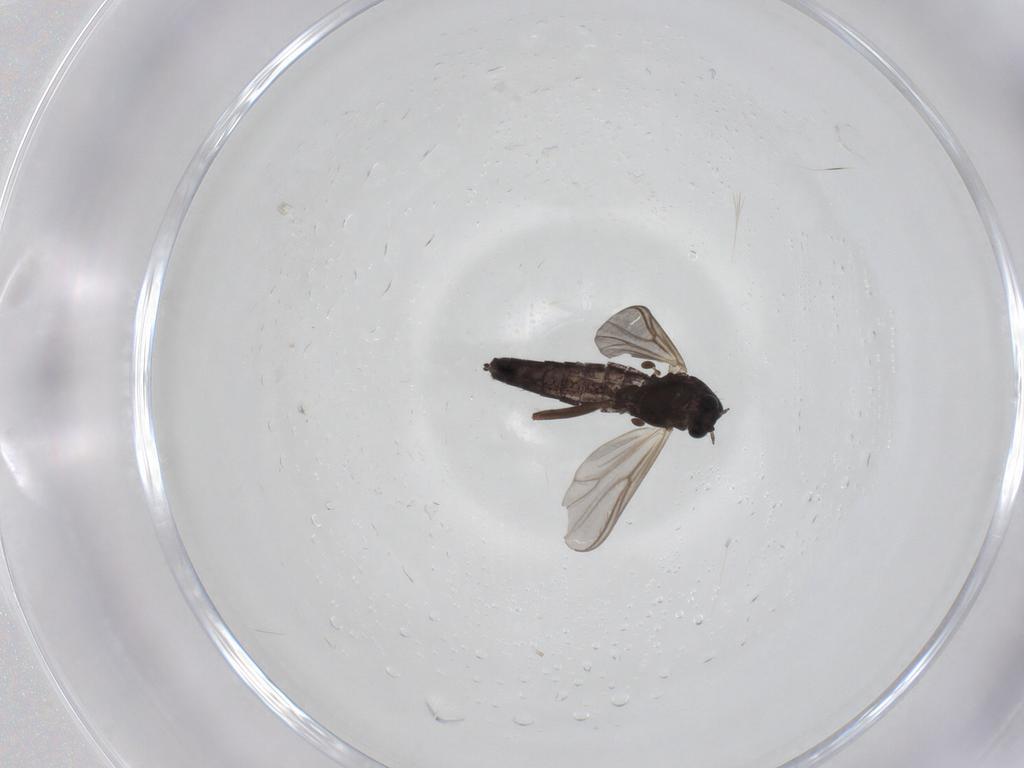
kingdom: Animalia
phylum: Arthropoda
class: Insecta
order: Diptera
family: Chironomidae
